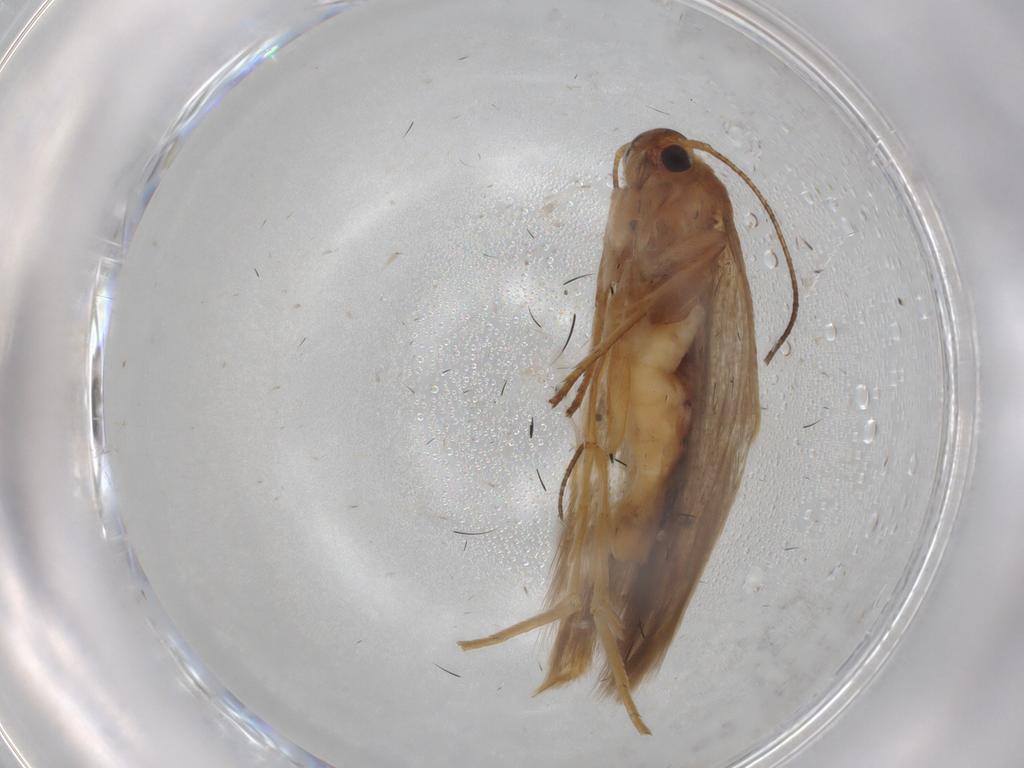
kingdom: Animalia
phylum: Arthropoda
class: Insecta
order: Lepidoptera
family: Scythrididae
